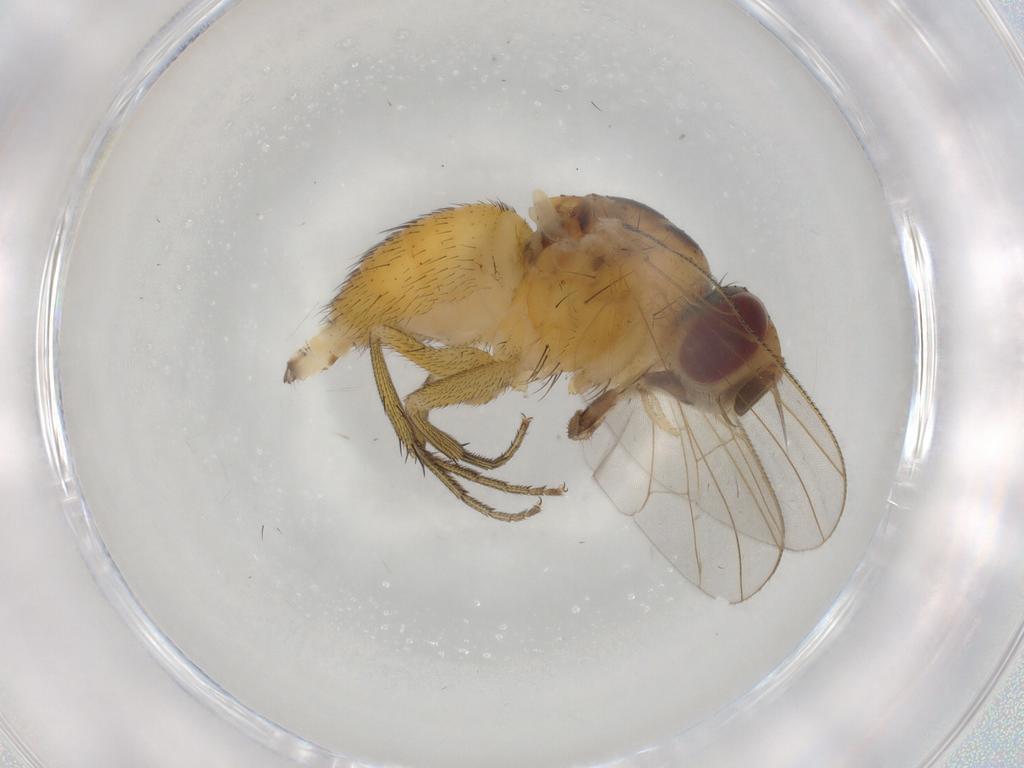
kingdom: Animalia
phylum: Arthropoda
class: Insecta
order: Diptera
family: Muscidae
